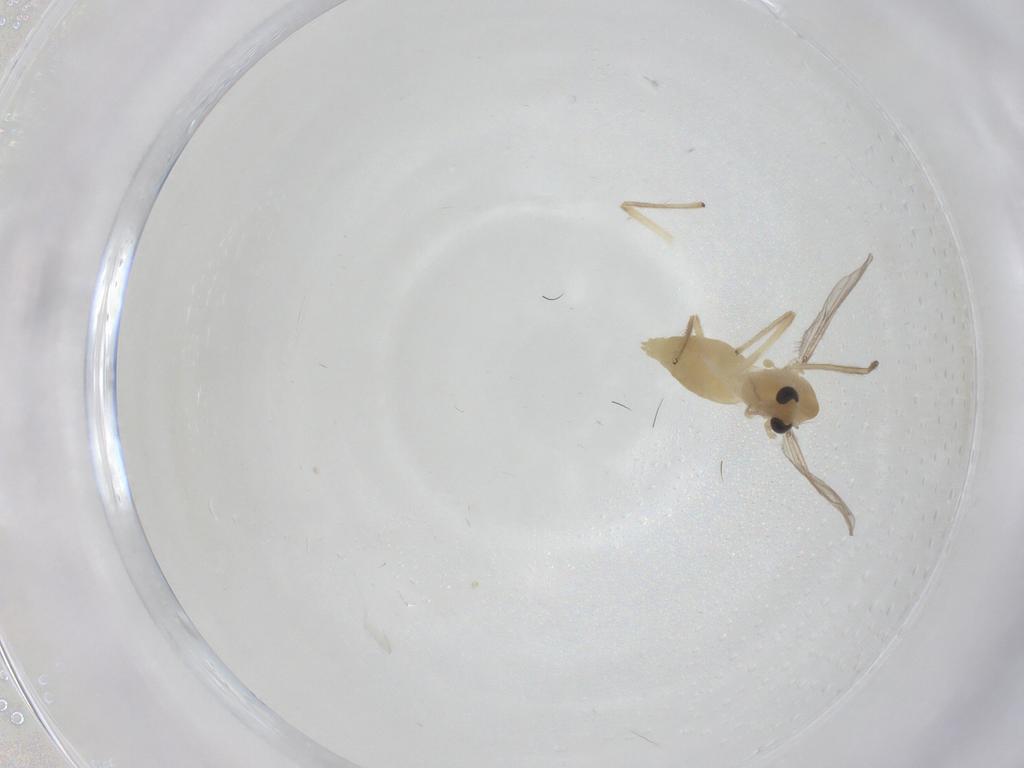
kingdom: Animalia
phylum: Arthropoda
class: Insecta
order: Diptera
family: Chironomidae
